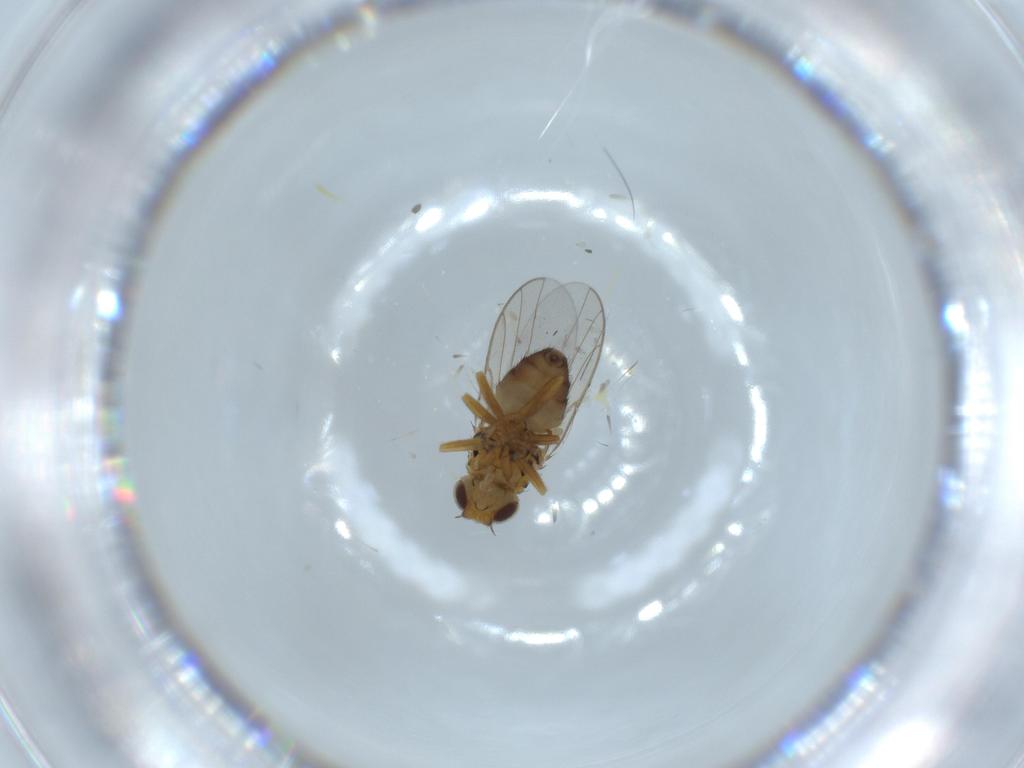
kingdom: Animalia
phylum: Arthropoda
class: Insecta
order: Diptera
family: Chloropidae
